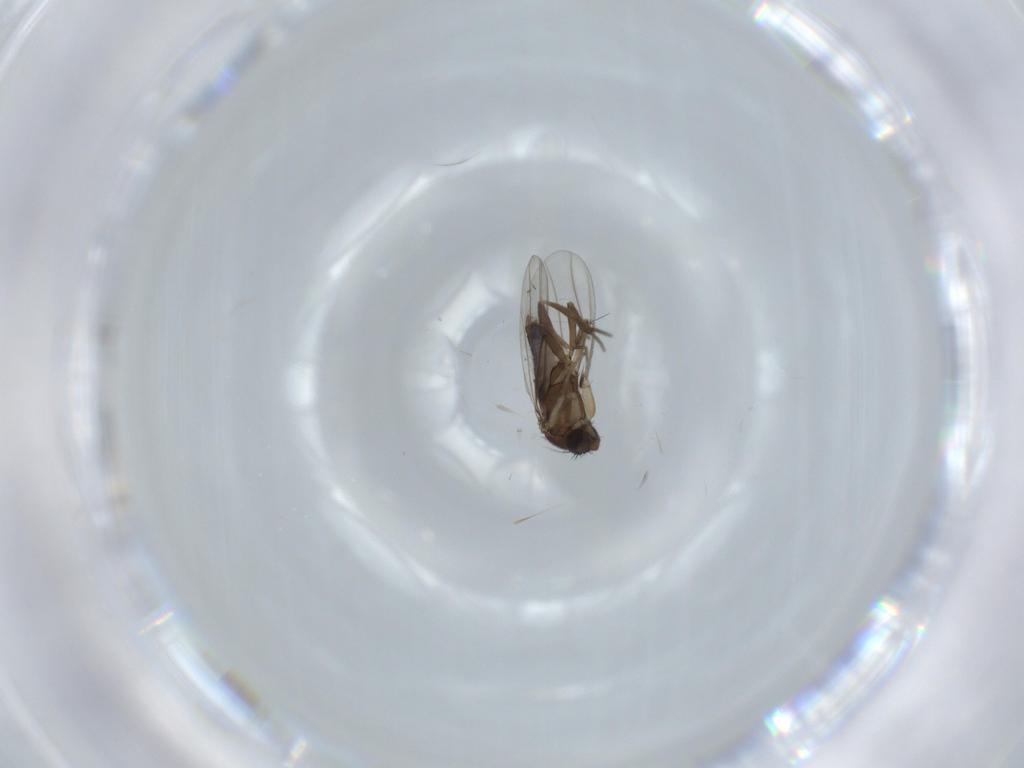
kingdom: Animalia
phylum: Arthropoda
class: Insecta
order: Diptera
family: Phoridae
